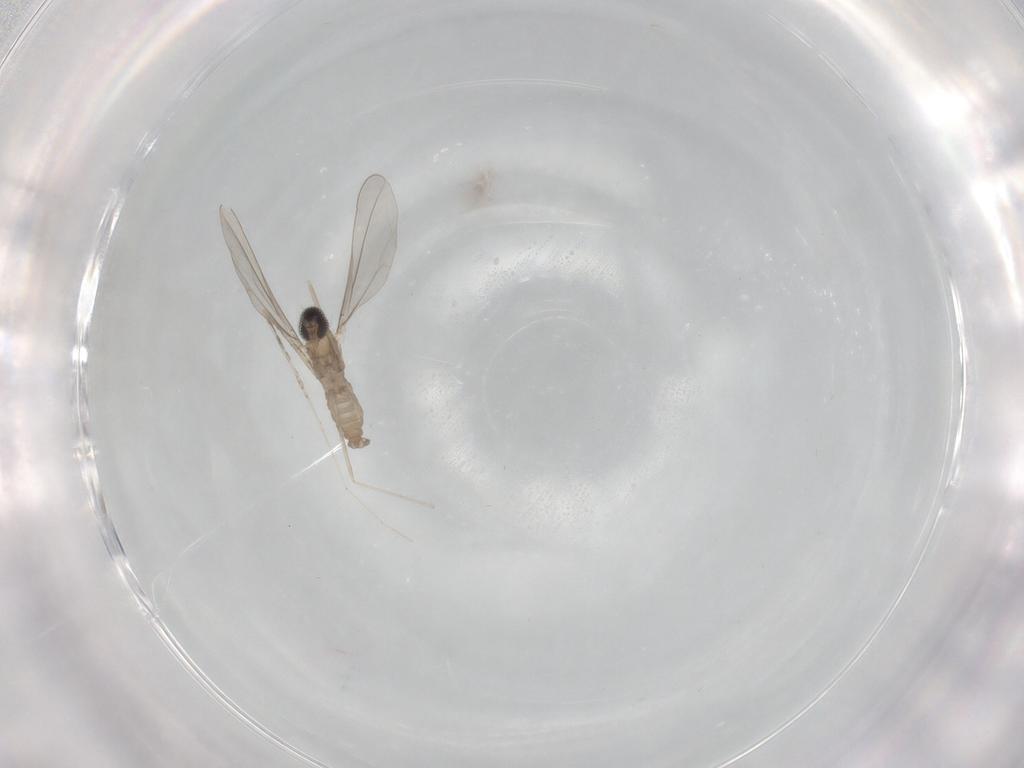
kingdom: Animalia
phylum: Arthropoda
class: Insecta
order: Diptera
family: Cecidomyiidae
